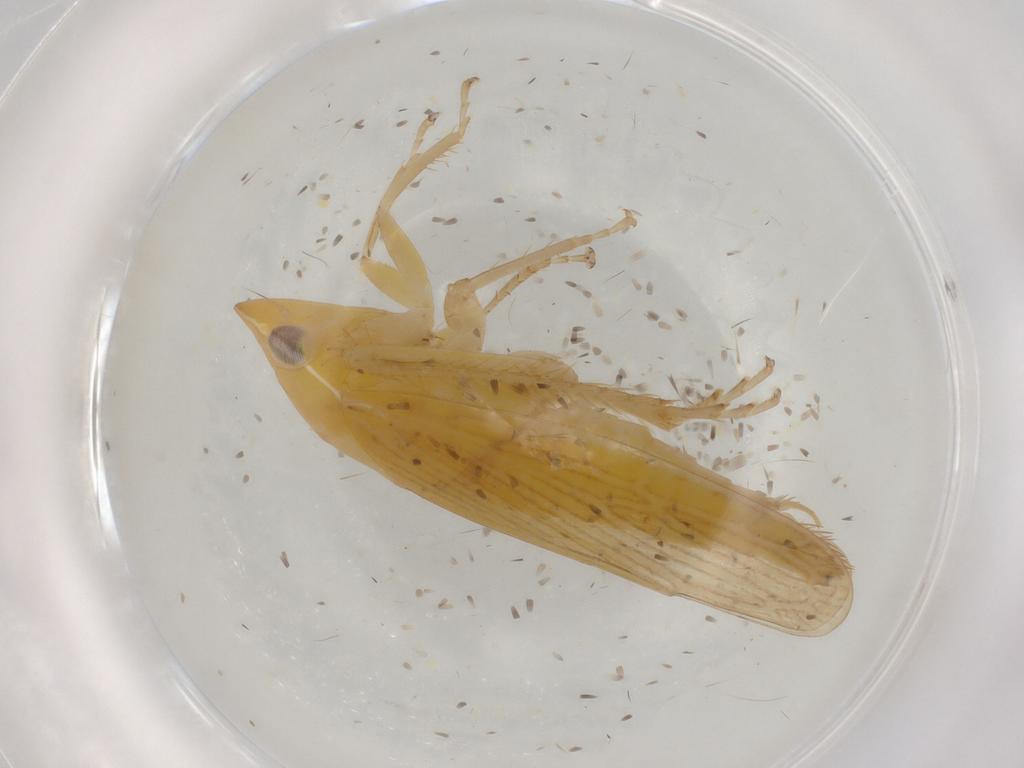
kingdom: Animalia
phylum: Arthropoda
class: Insecta
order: Hemiptera
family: Cicadellidae
